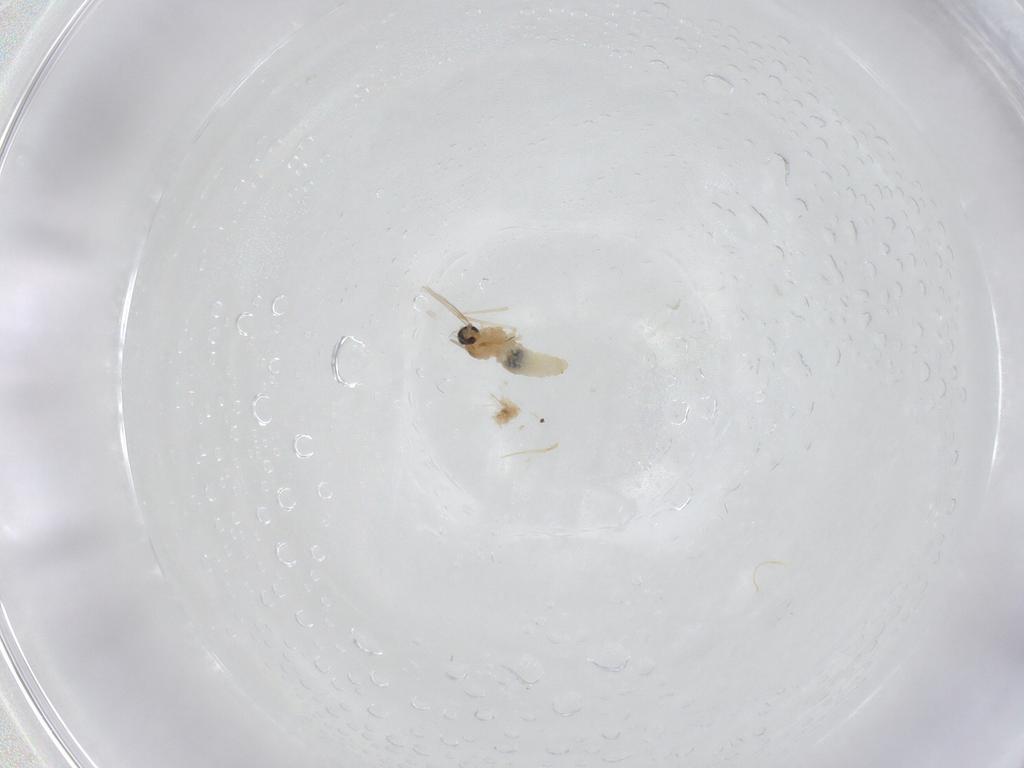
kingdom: Animalia
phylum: Arthropoda
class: Insecta
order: Diptera
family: Cecidomyiidae
